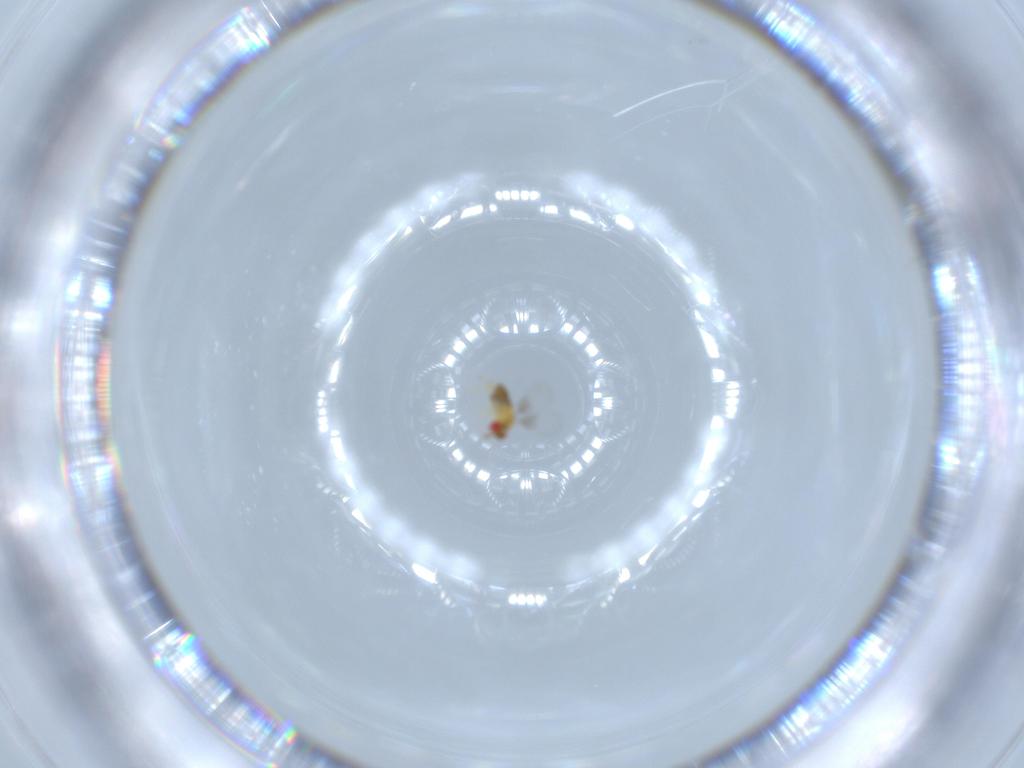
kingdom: Animalia
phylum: Arthropoda
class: Insecta
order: Hymenoptera
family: Trichogrammatidae
